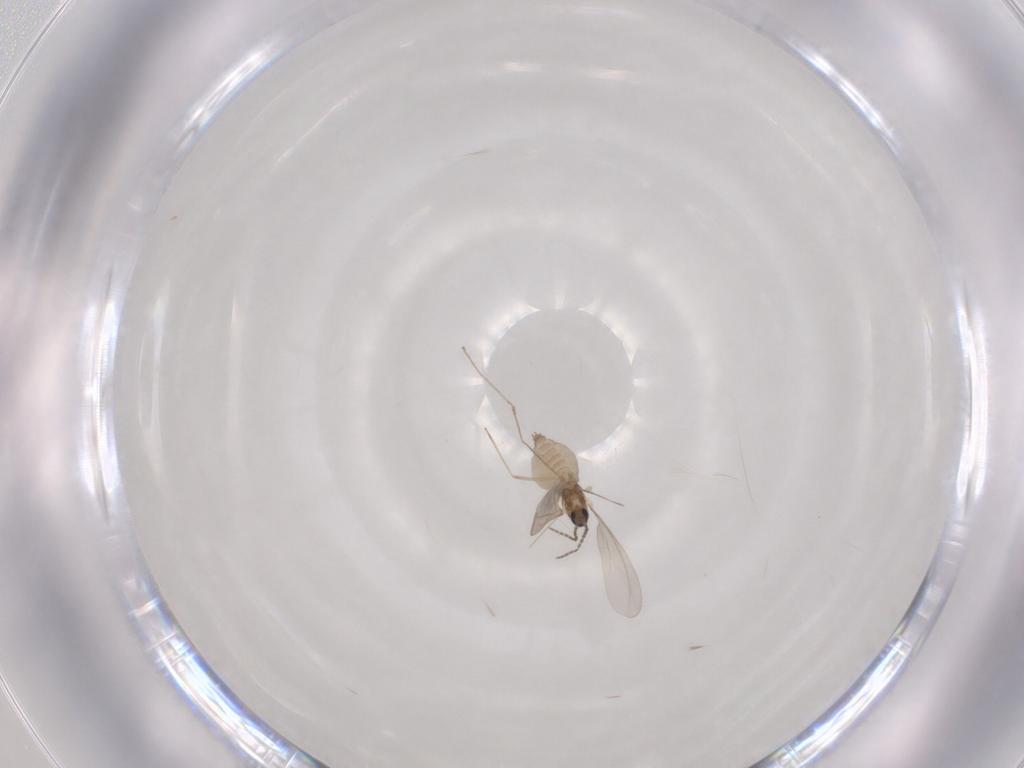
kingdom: Animalia
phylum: Arthropoda
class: Insecta
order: Diptera
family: Cecidomyiidae
